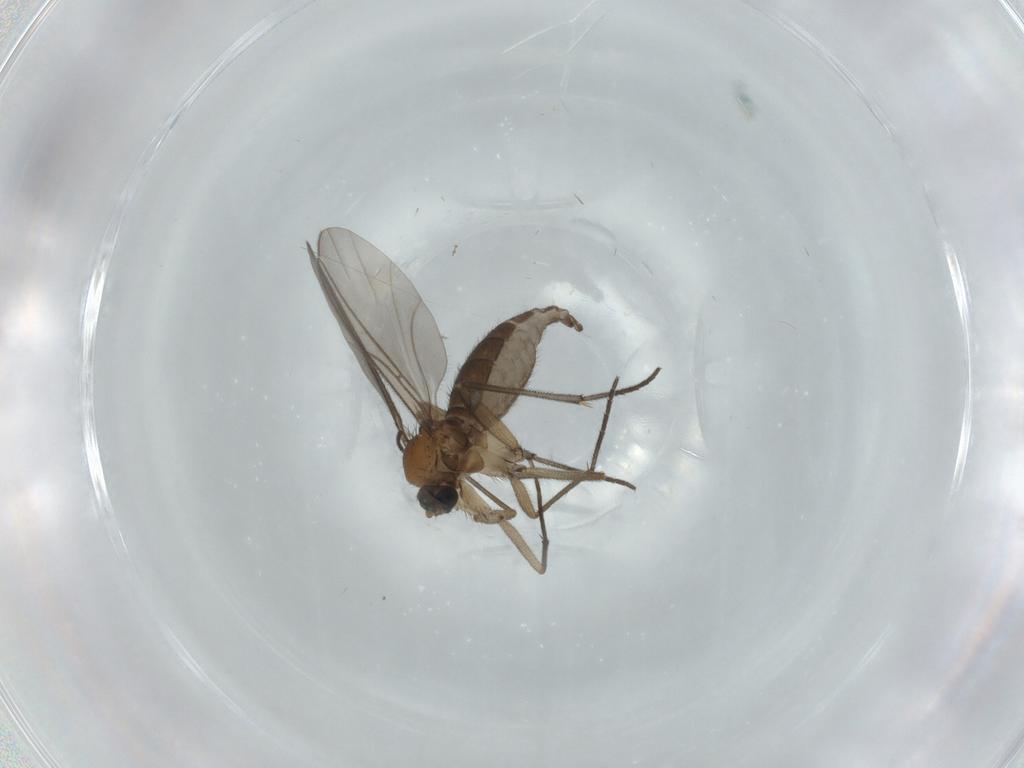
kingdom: Animalia
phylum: Arthropoda
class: Insecta
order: Diptera
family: Sciaridae
